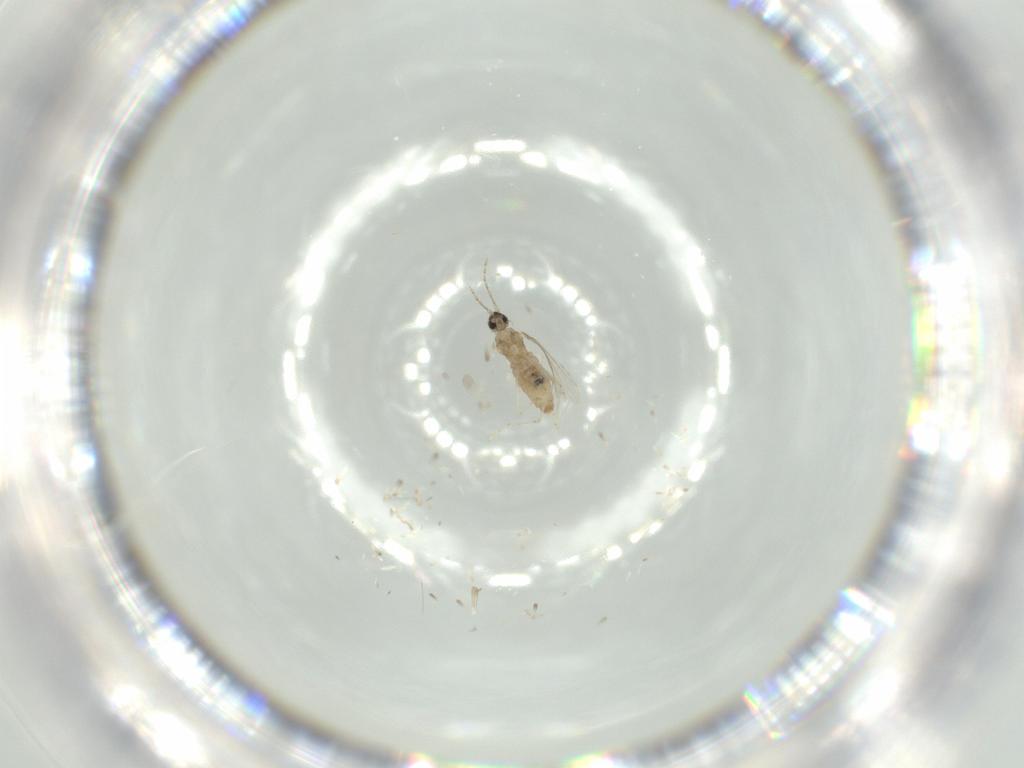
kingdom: Animalia
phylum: Arthropoda
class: Insecta
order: Diptera
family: Cecidomyiidae
